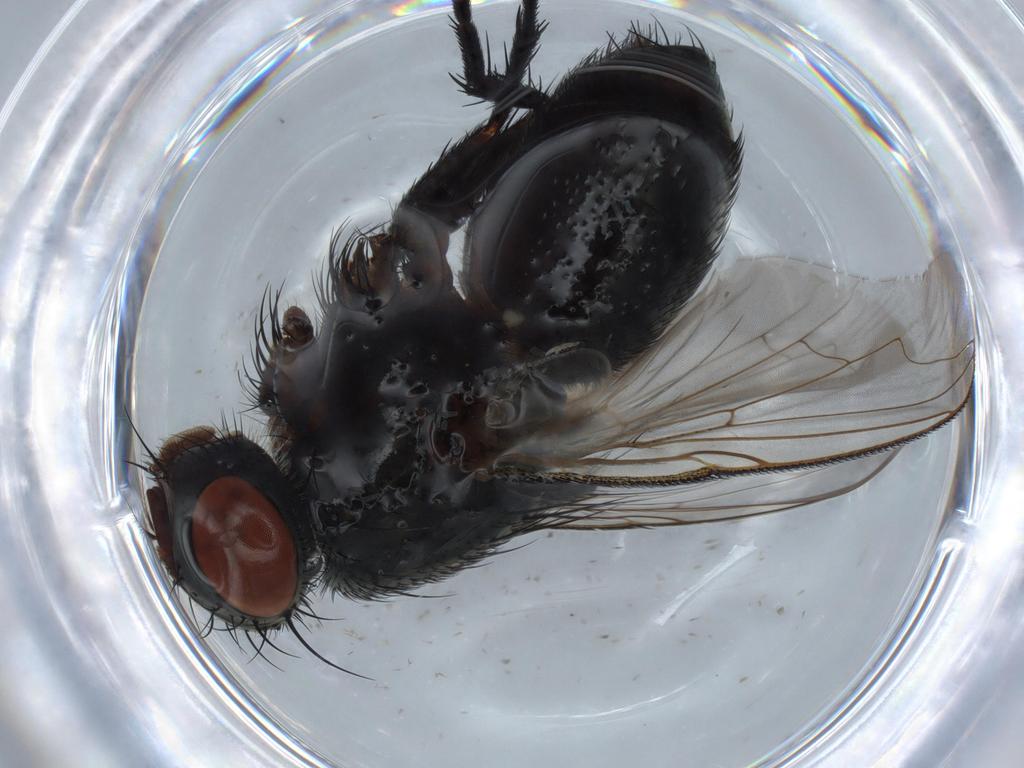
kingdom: Animalia
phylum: Arthropoda
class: Insecta
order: Diptera
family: Sarcophagidae
